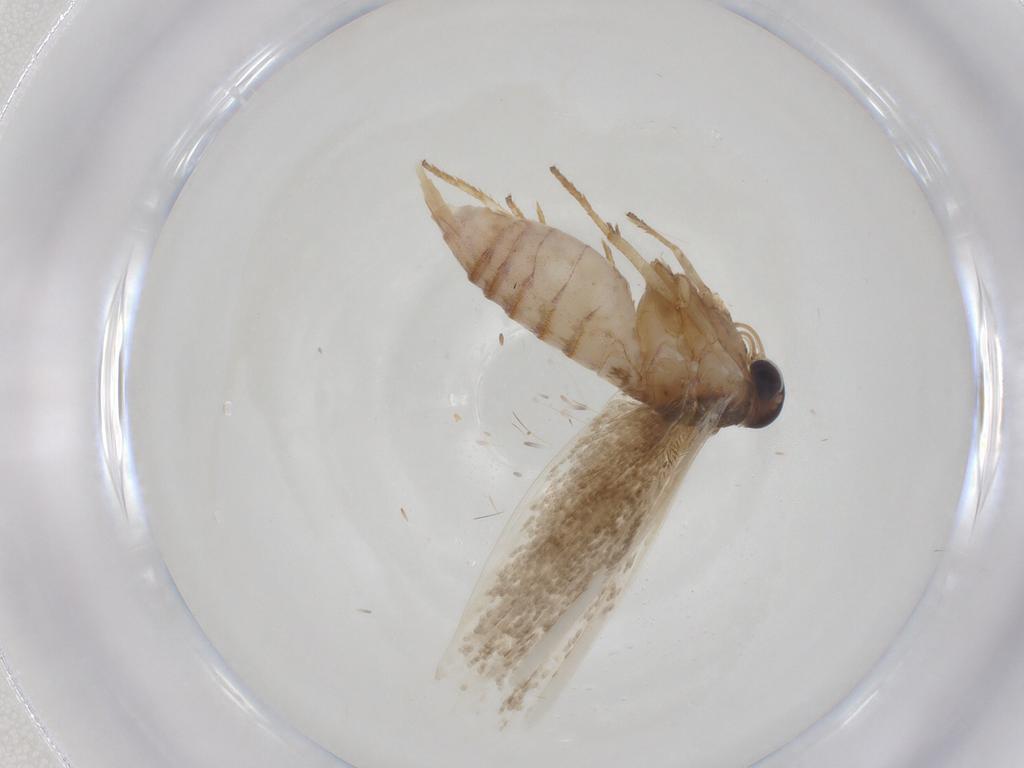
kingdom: Animalia
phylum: Arthropoda
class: Insecta
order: Lepidoptera
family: Blastobasidae
